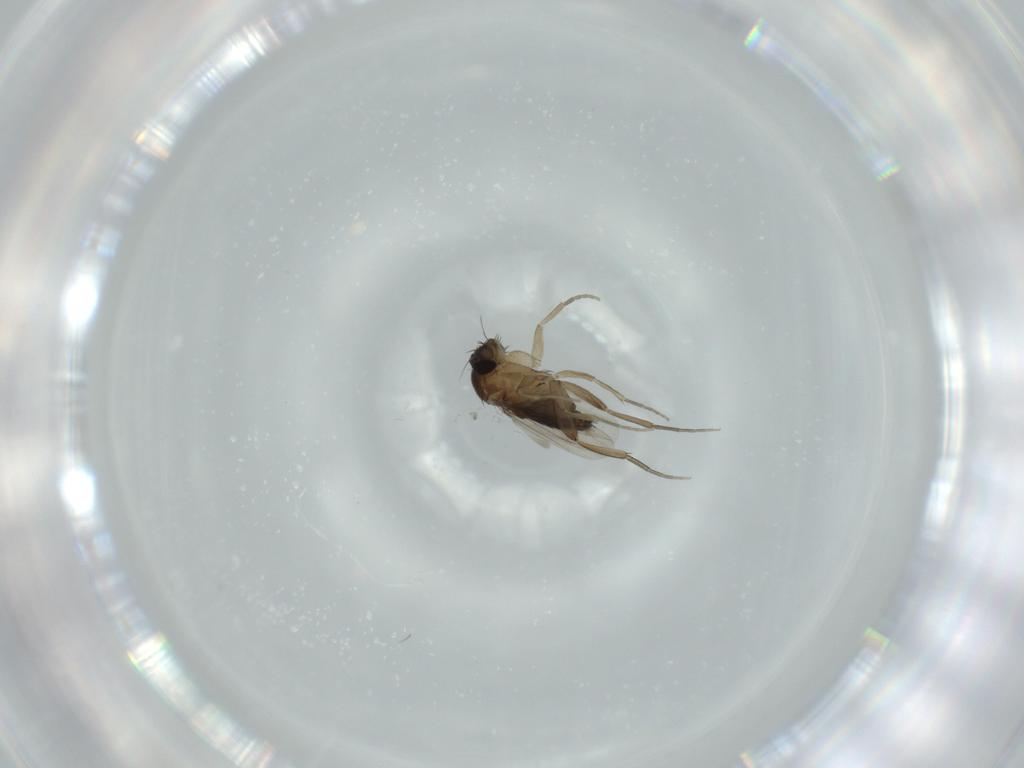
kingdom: Animalia
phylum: Arthropoda
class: Insecta
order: Diptera
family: Phoridae
